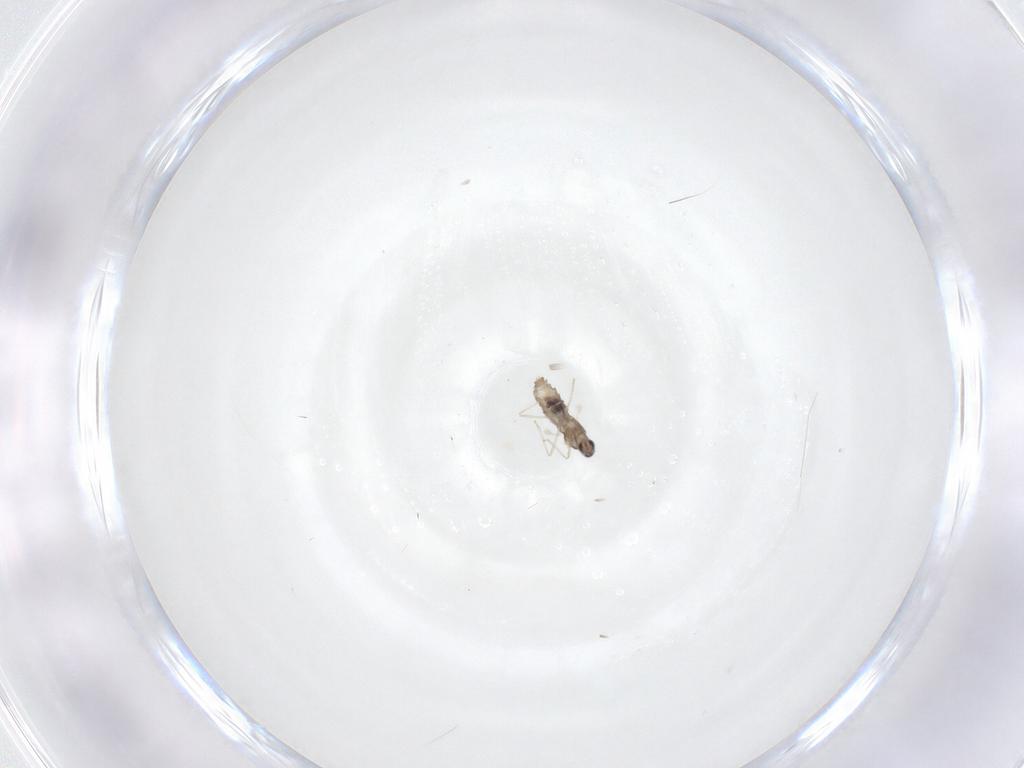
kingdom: Animalia
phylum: Arthropoda
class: Insecta
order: Diptera
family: Cecidomyiidae
